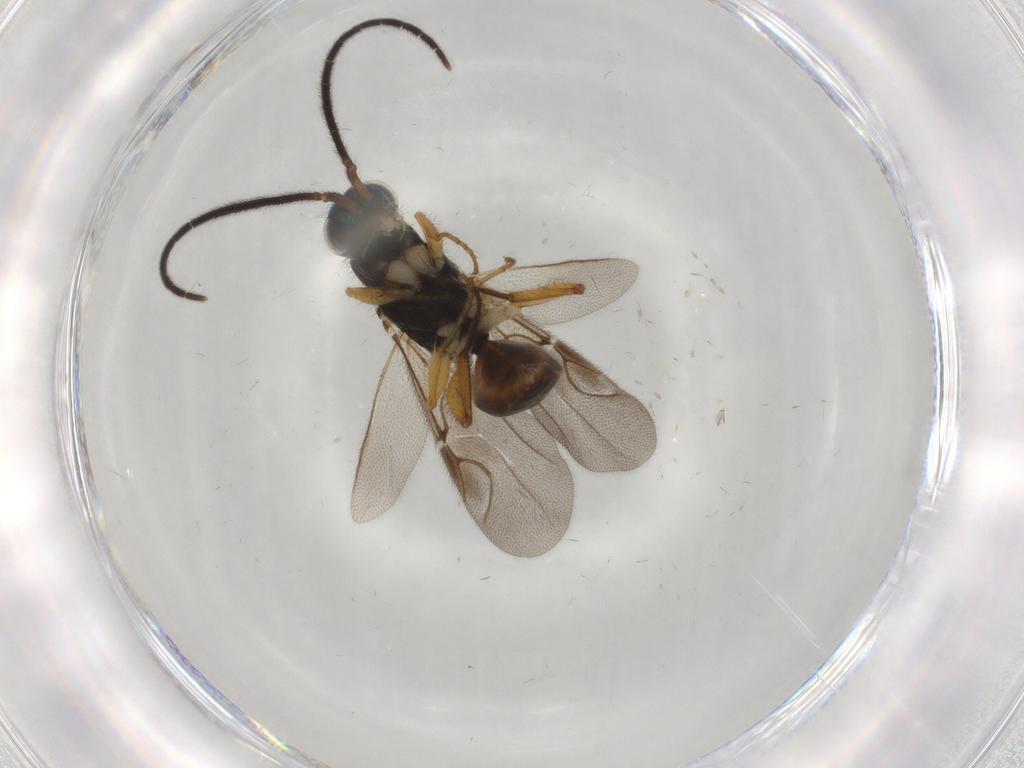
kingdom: Animalia
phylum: Arthropoda
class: Insecta
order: Hymenoptera
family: Chrysididae
